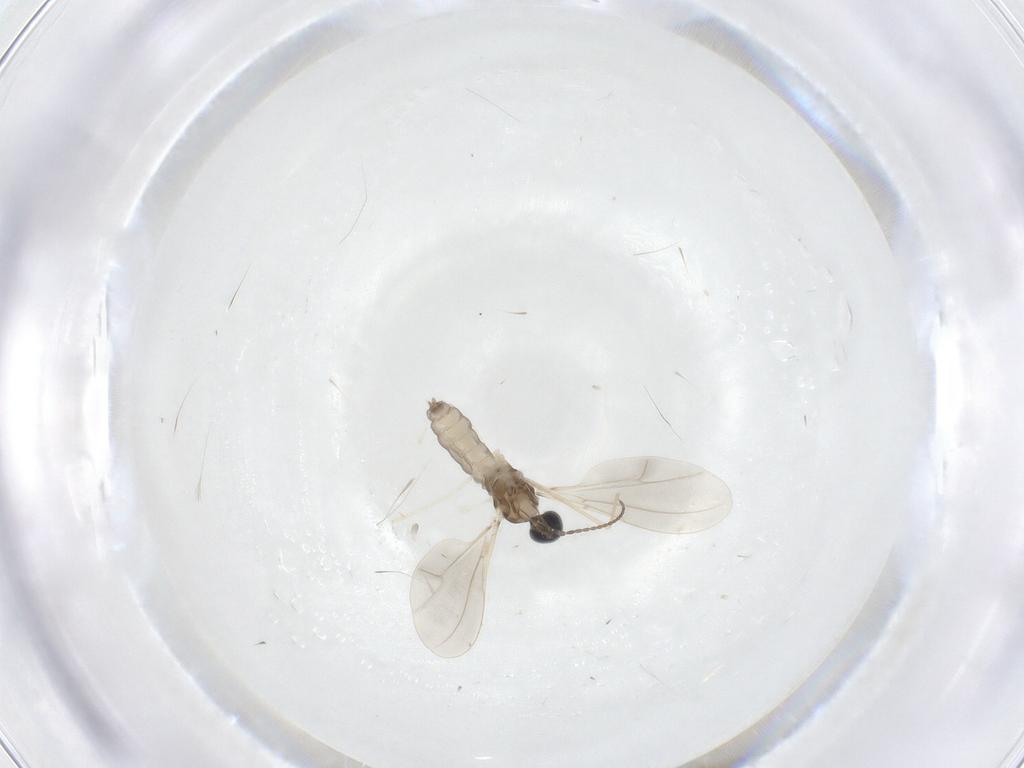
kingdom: Animalia
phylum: Arthropoda
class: Insecta
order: Diptera
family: Cecidomyiidae
